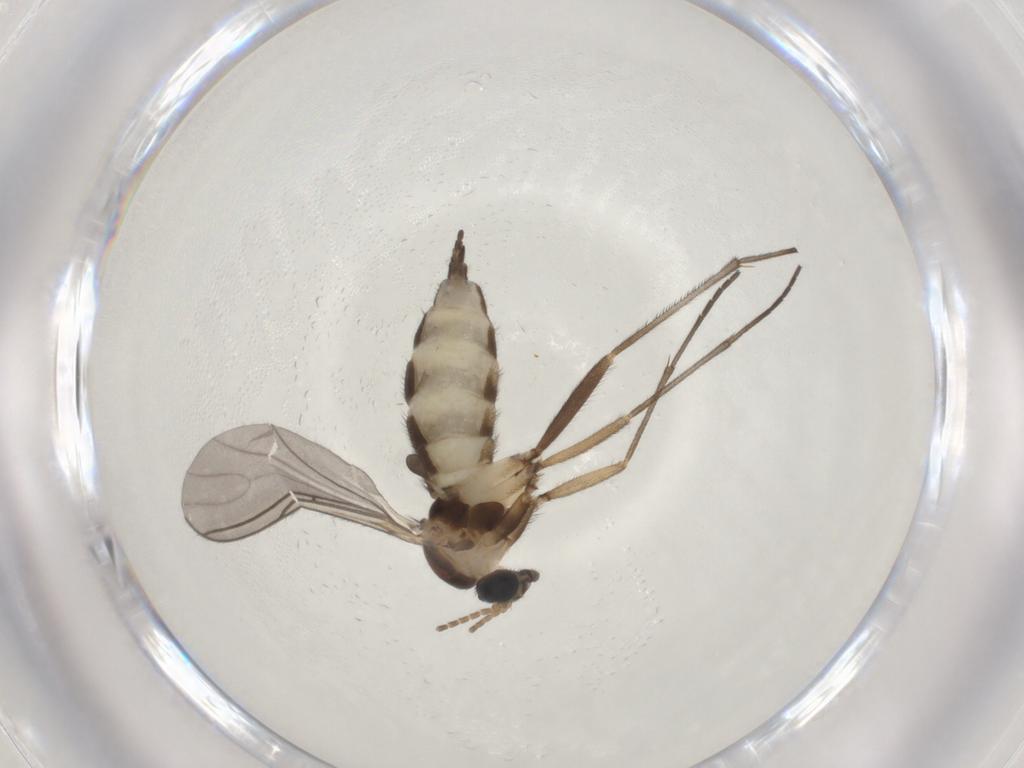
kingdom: Animalia
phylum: Arthropoda
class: Insecta
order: Diptera
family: Sciaridae
